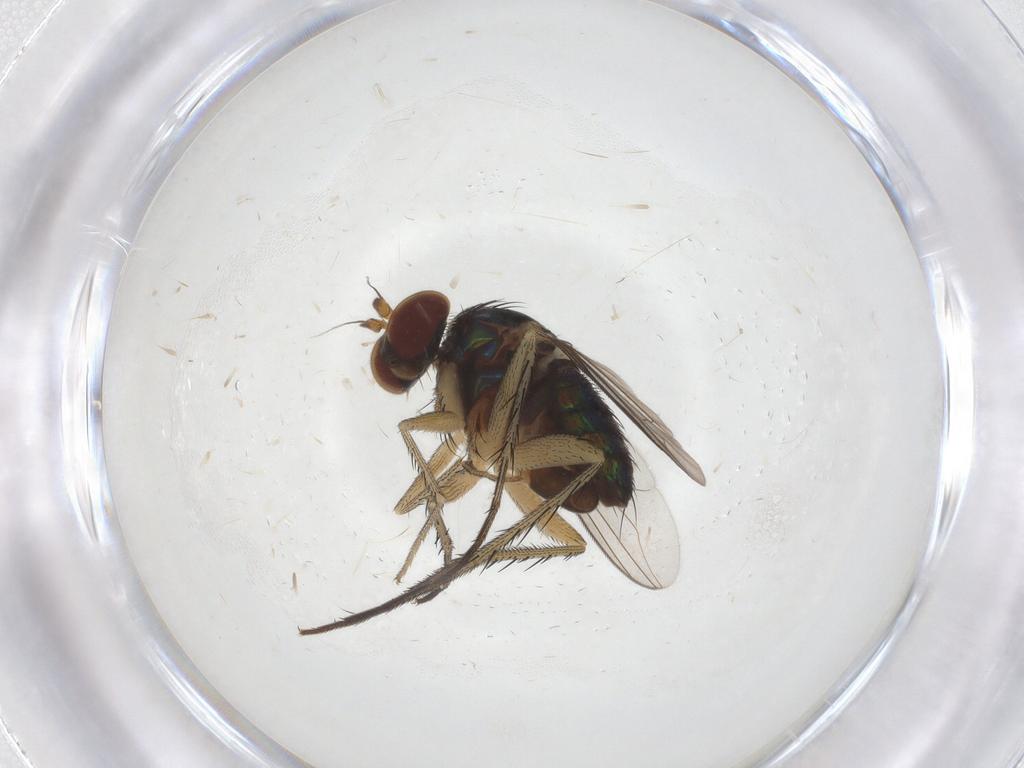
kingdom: Animalia
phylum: Arthropoda
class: Insecta
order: Diptera
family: Dolichopodidae
